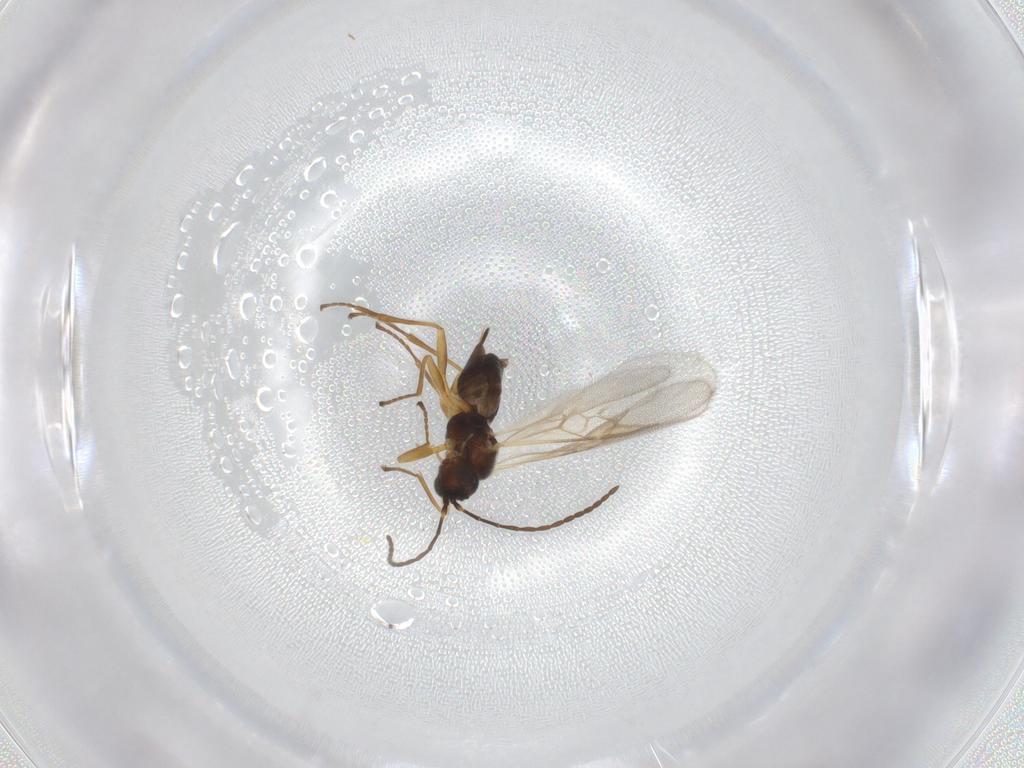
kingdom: Animalia
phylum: Arthropoda
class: Insecta
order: Hymenoptera
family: Braconidae
